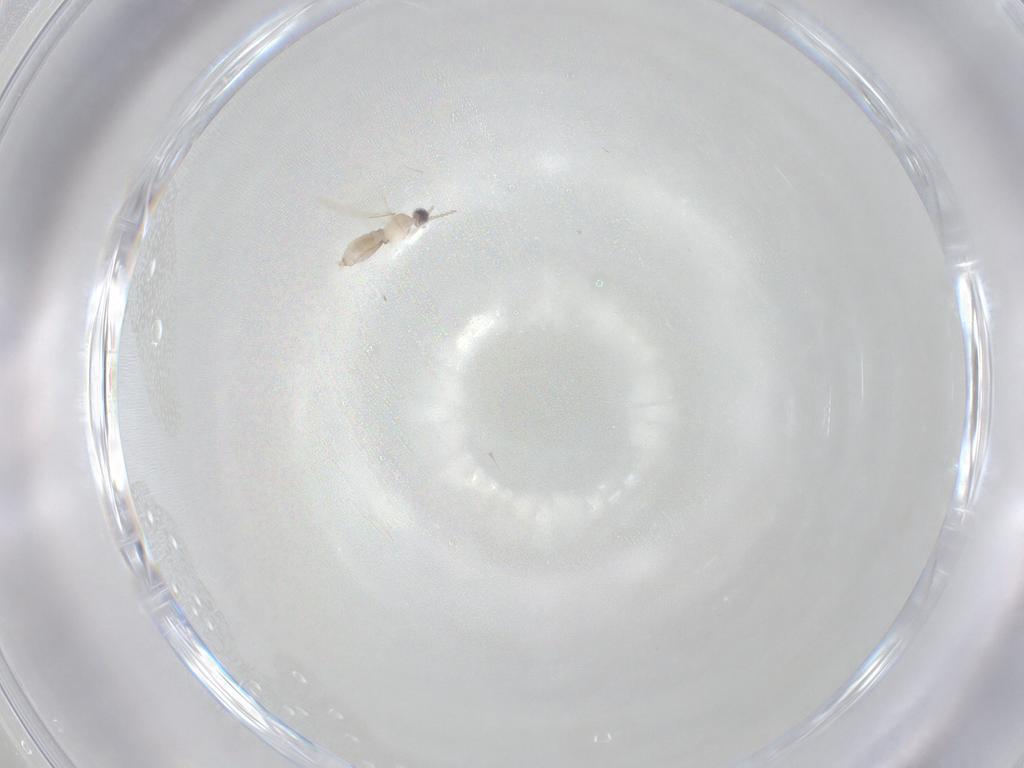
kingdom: Animalia
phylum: Arthropoda
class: Insecta
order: Diptera
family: Cecidomyiidae
